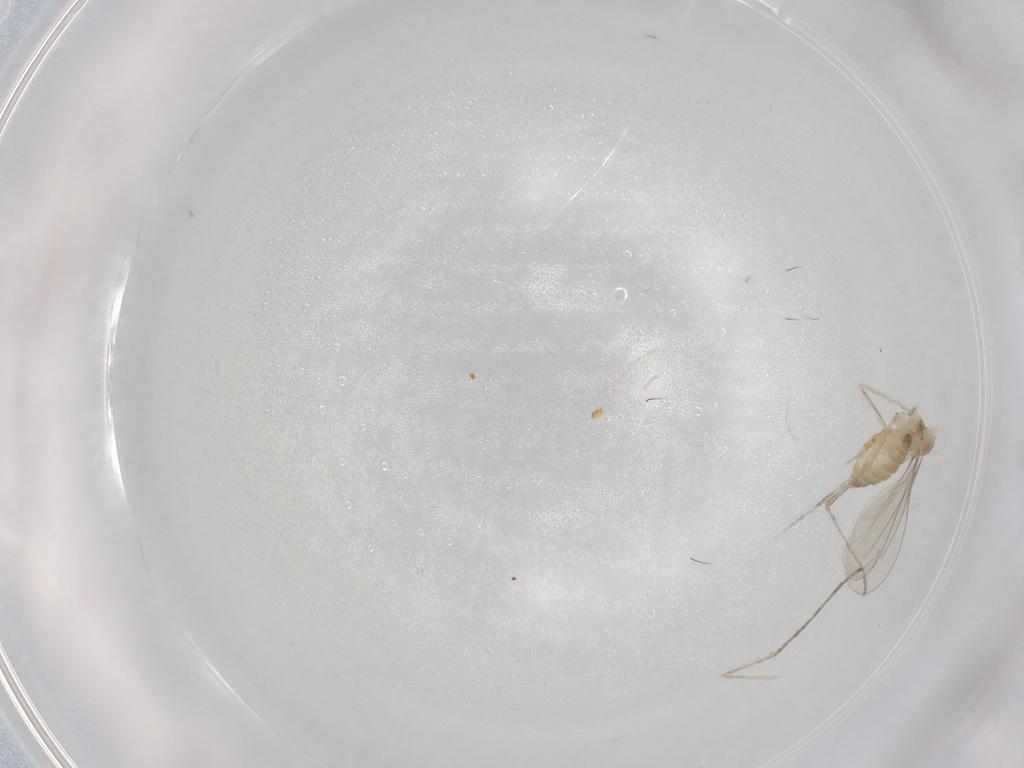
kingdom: Animalia
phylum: Arthropoda
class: Insecta
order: Diptera
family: Cecidomyiidae
